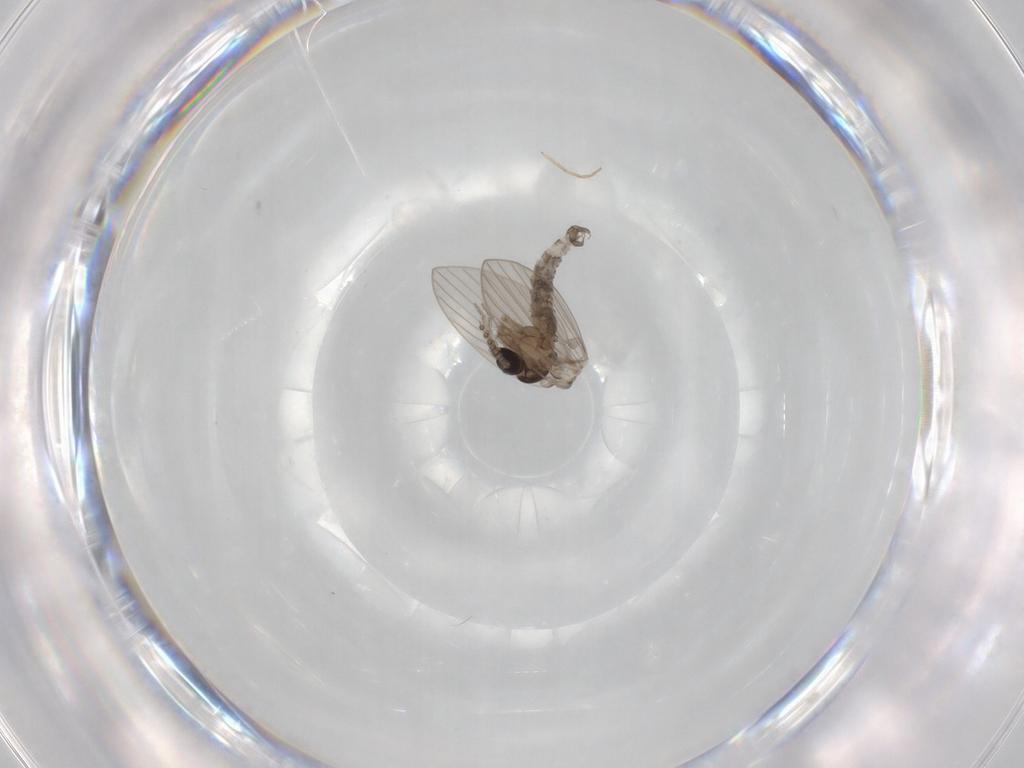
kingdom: Animalia
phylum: Arthropoda
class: Insecta
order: Diptera
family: Psychodidae
